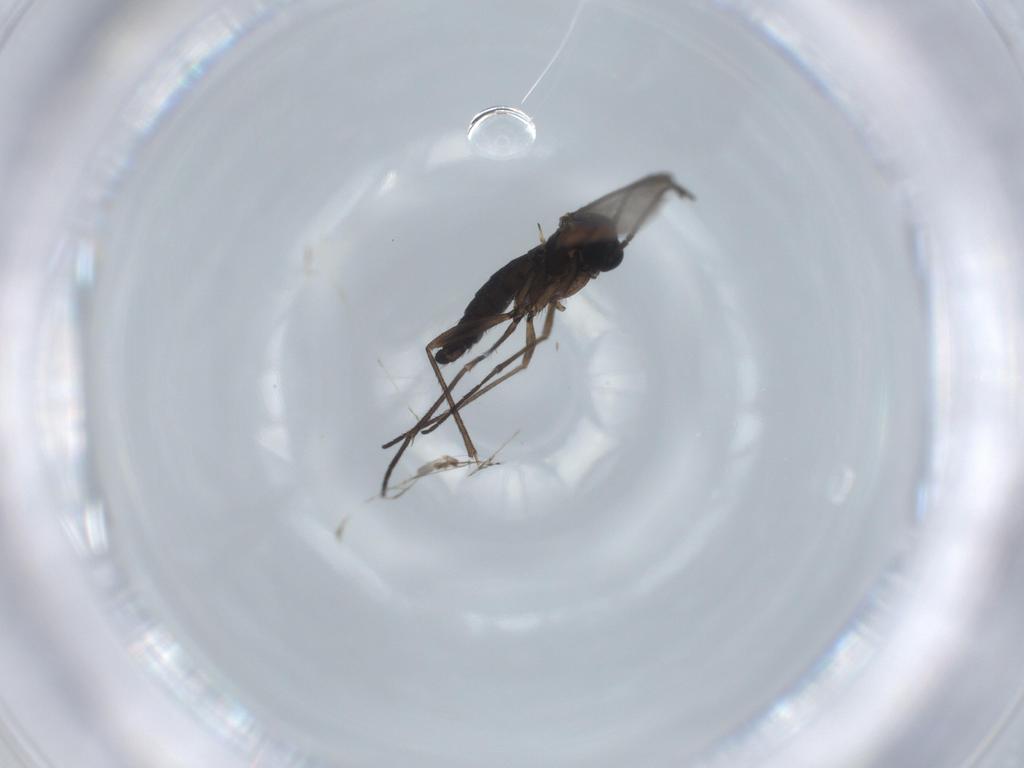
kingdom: Animalia
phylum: Arthropoda
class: Insecta
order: Diptera
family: Sciaridae
